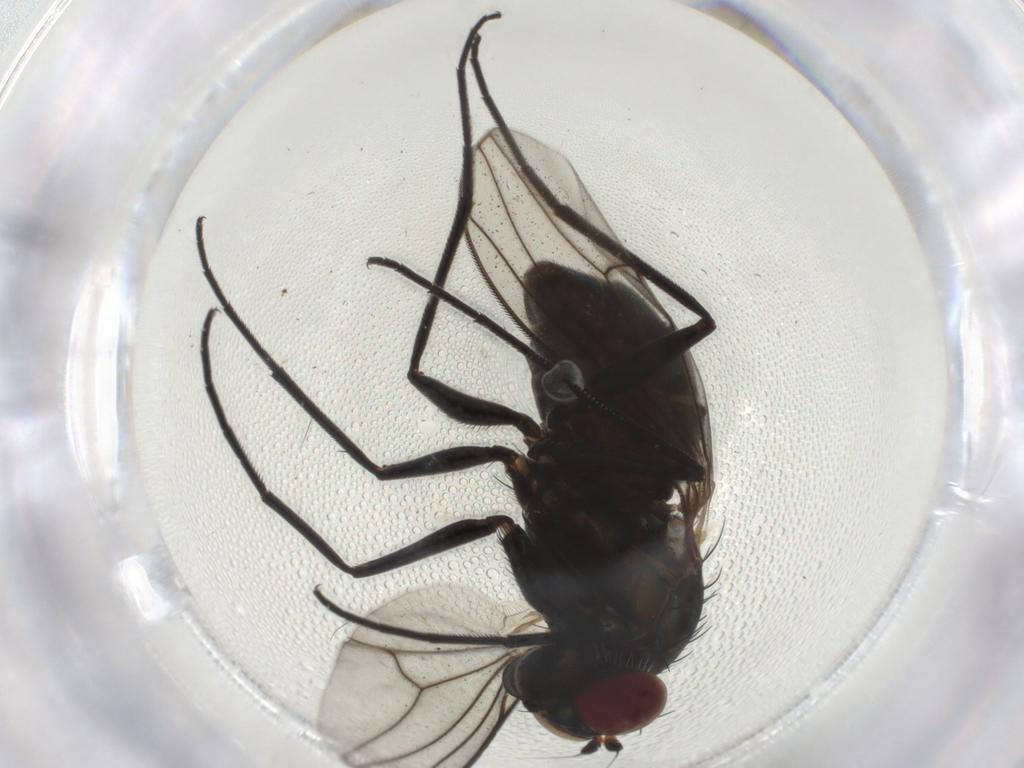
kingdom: Animalia
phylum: Arthropoda
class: Insecta
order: Diptera
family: Dolichopodidae
